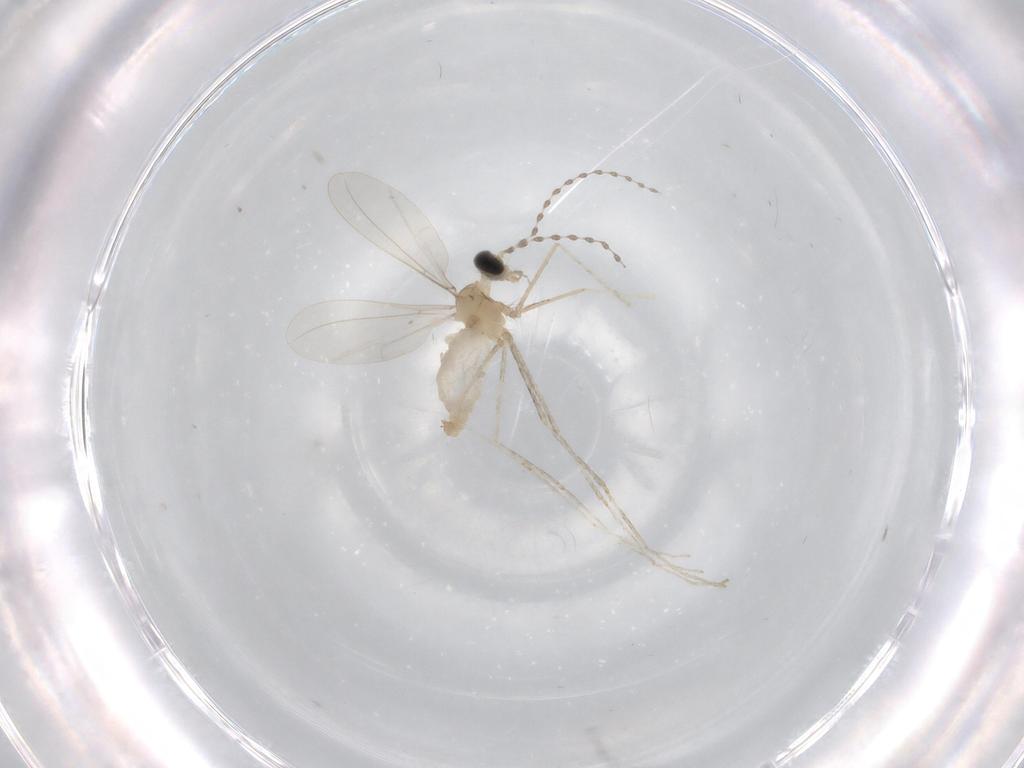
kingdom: Animalia
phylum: Arthropoda
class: Insecta
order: Diptera
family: Cecidomyiidae
